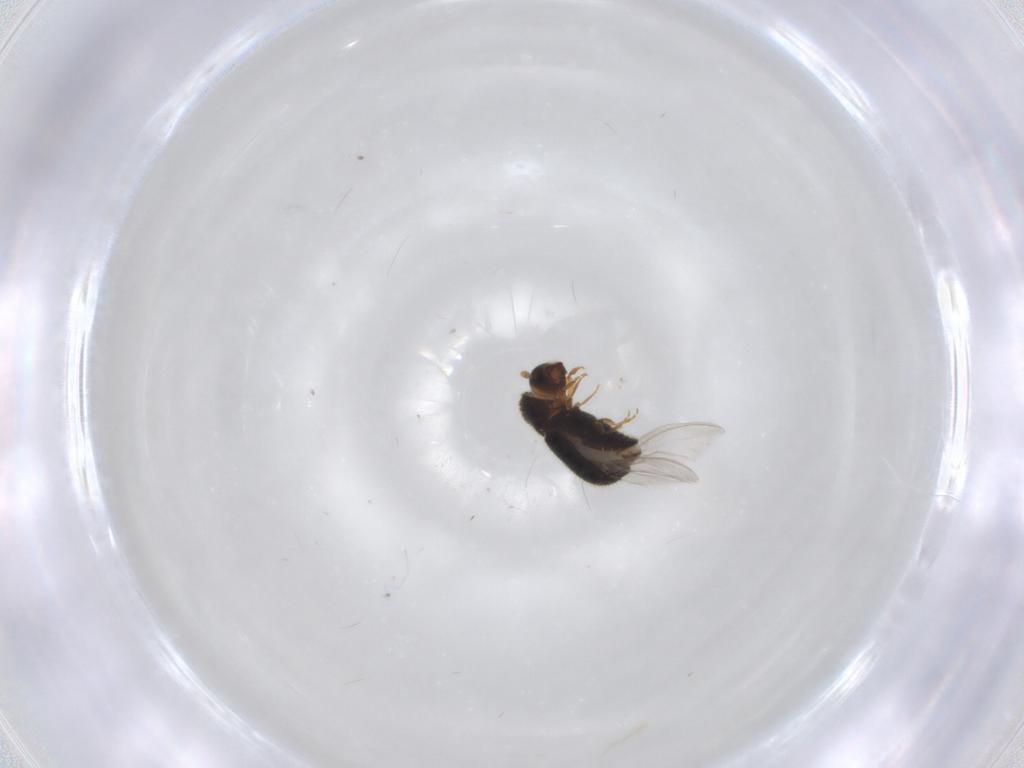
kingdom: Animalia
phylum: Arthropoda
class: Insecta
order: Coleoptera
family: Curculionidae
